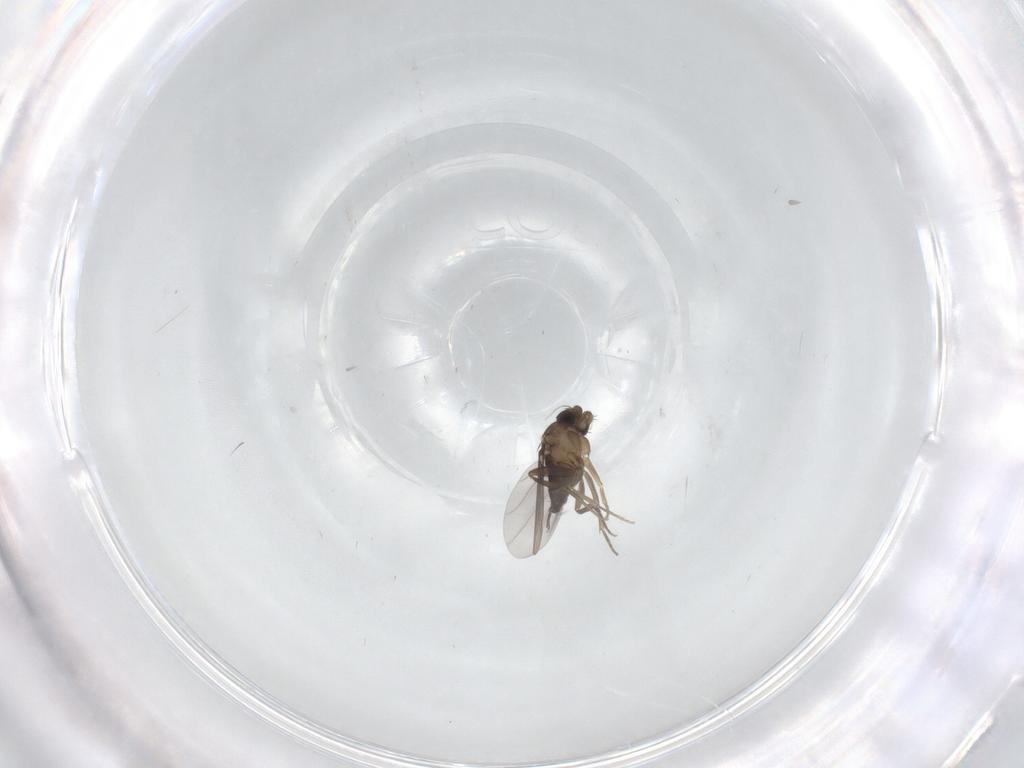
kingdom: Animalia
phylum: Arthropoda
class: Insecta
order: Diptera
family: Phoridae
